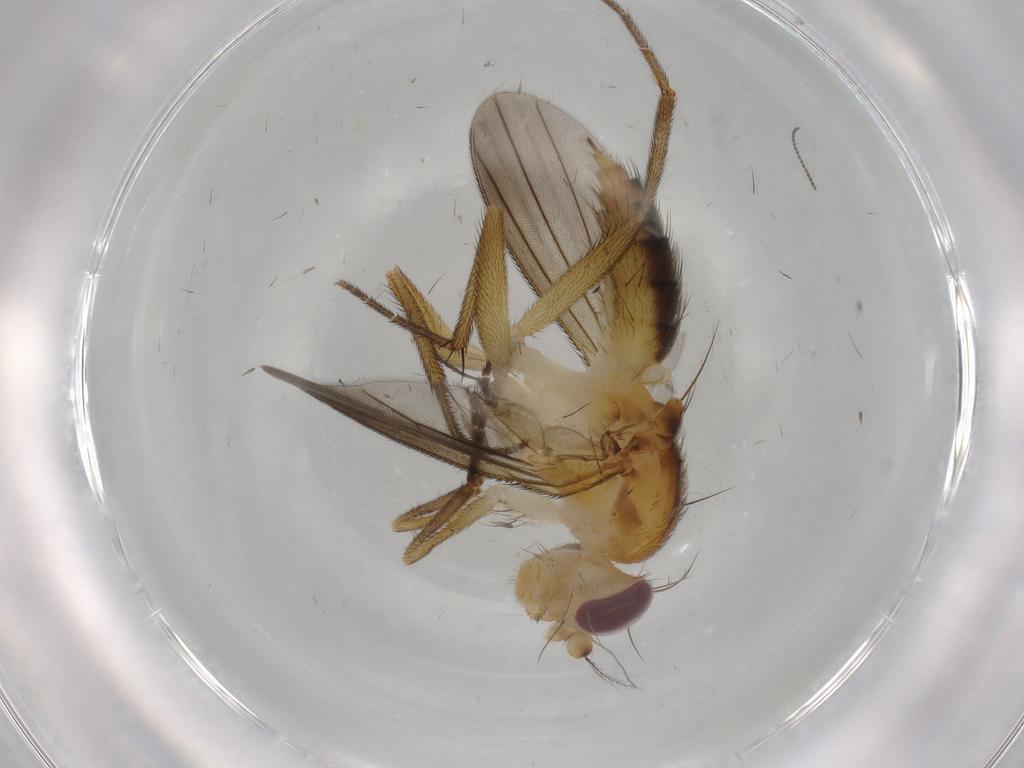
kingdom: Animalia
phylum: Arthropoda
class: Insecta
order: Diptera
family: Clusiidae
